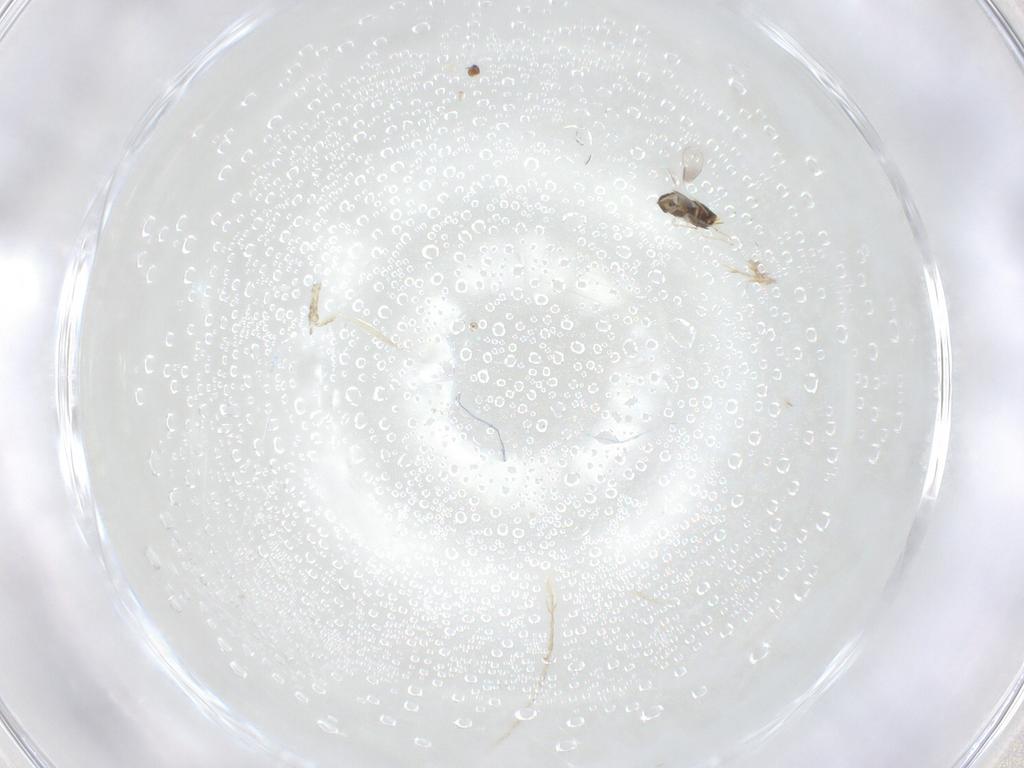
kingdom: Animalia
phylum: Arthropoda
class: Insecta
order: Hymenoptera
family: Aphelinidae
